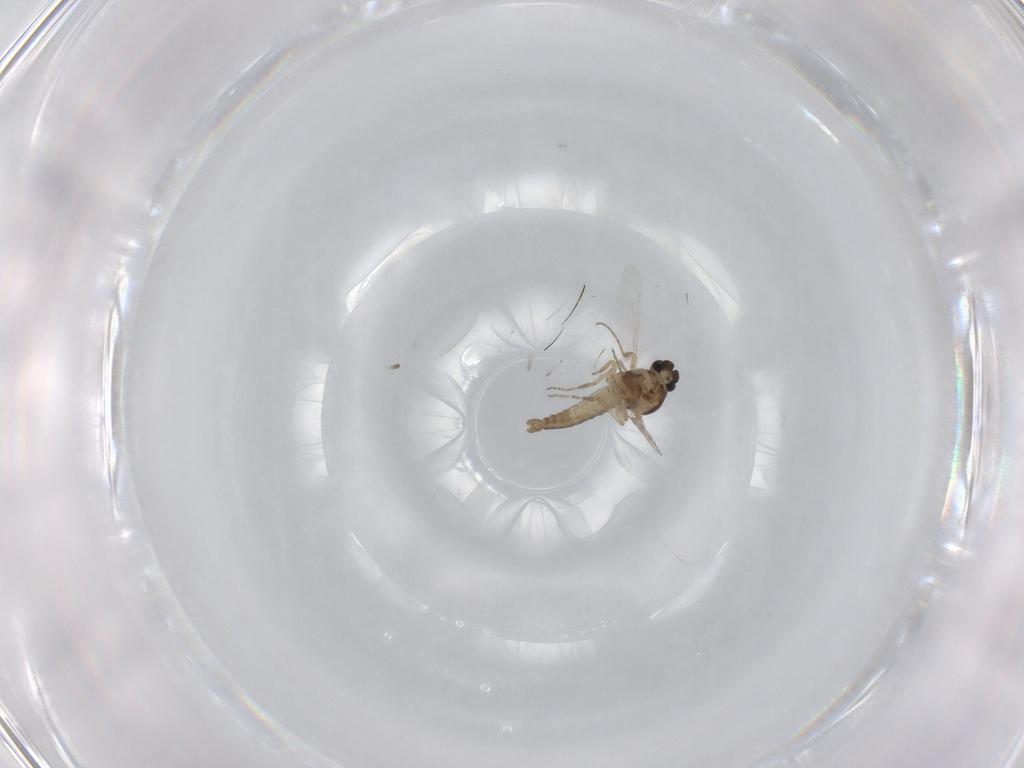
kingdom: Animalia
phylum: Arthropoda
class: Insecta
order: Diptera
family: Ceratopogonidae
